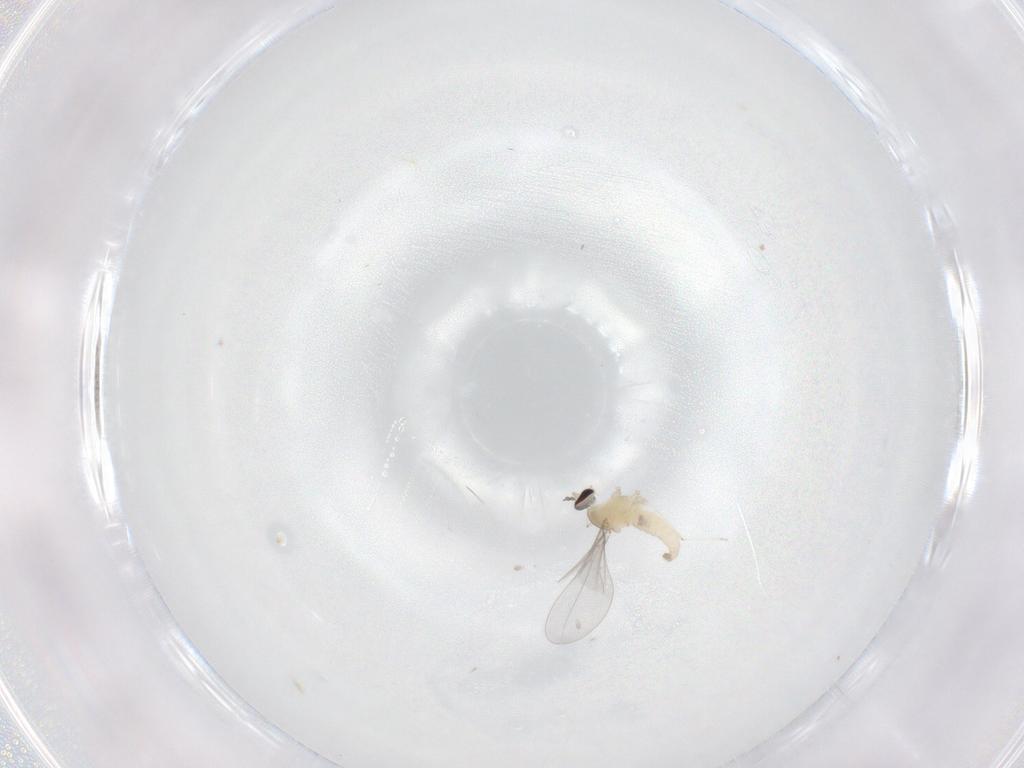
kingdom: Animalia
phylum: Arthropoda
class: Insecta
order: Diptera
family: Cecidomyiidae
